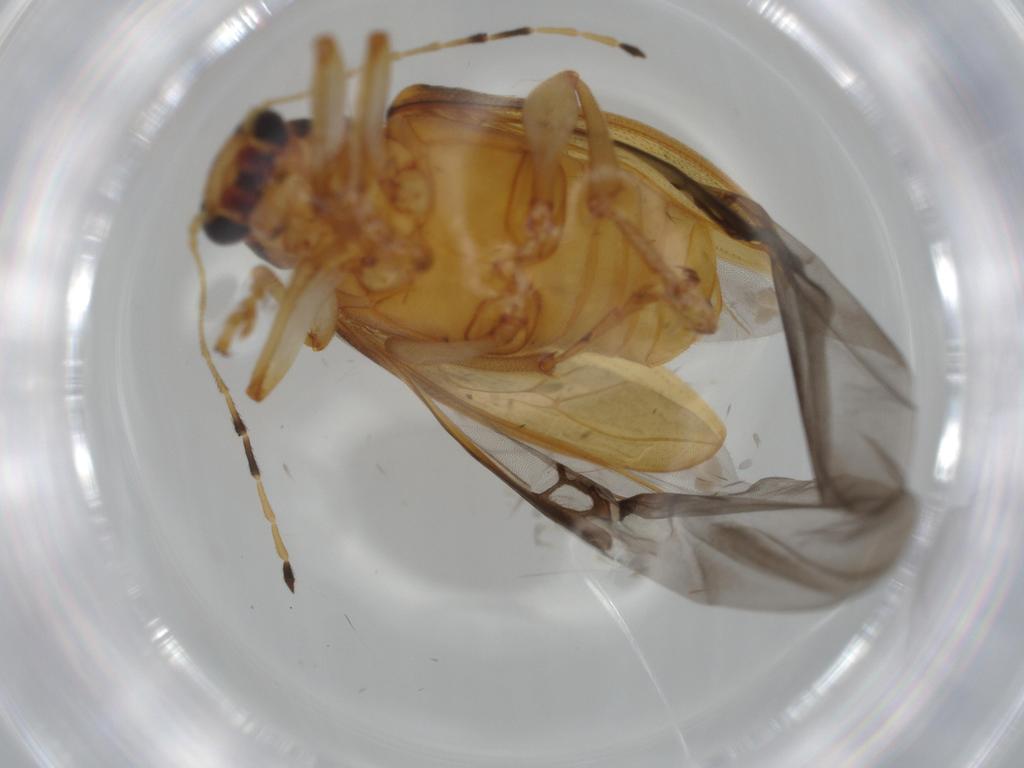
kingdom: Animalia
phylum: Arthropoda
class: Insecta
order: Coleoptera
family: Chrysomelidae
